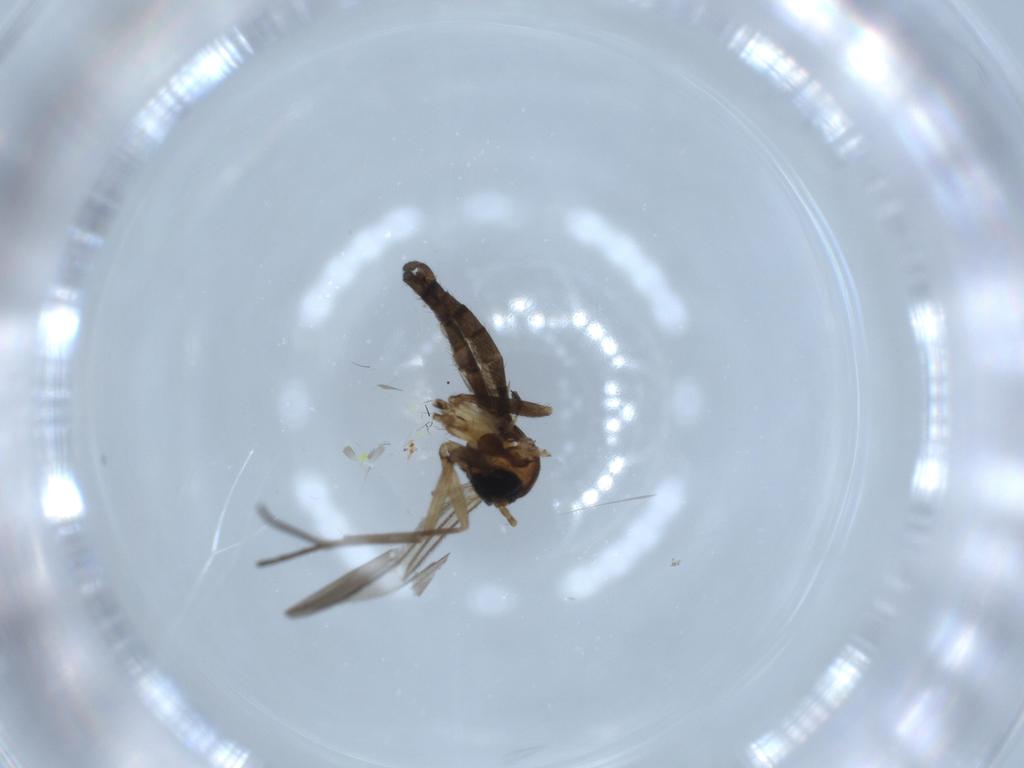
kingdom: Animalia
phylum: Arthropoda
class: Insecta
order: Diptera
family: Sciaridae
